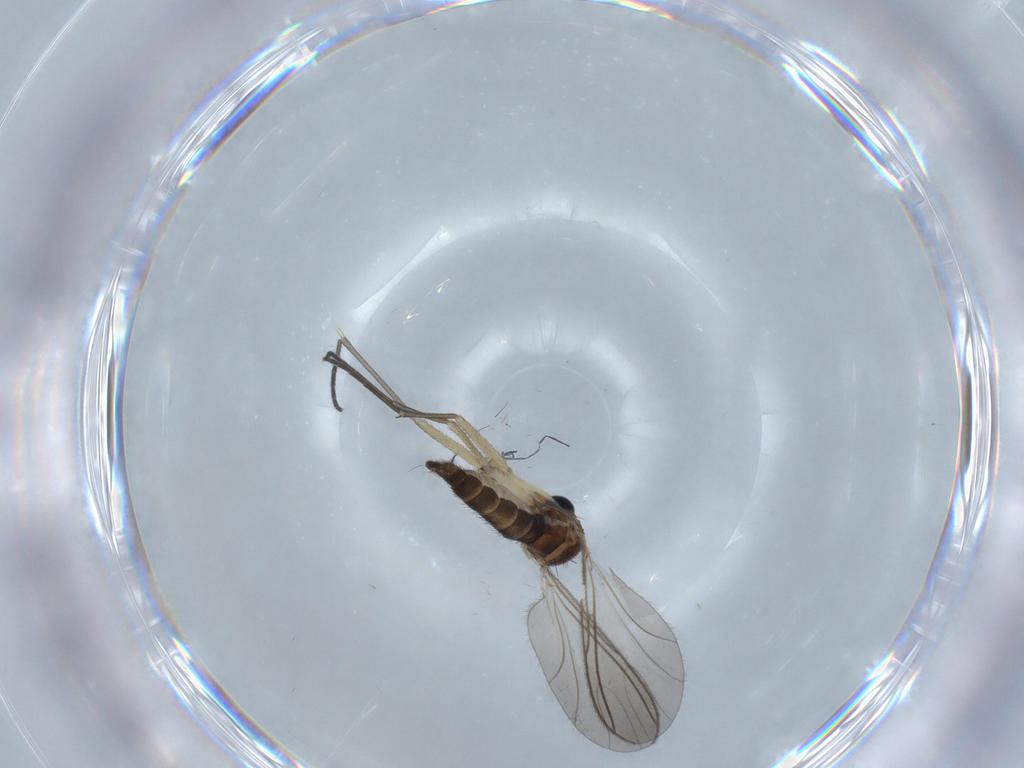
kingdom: Animalia
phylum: Arthropoda
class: Insecta
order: Diptera
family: Sciaridae
